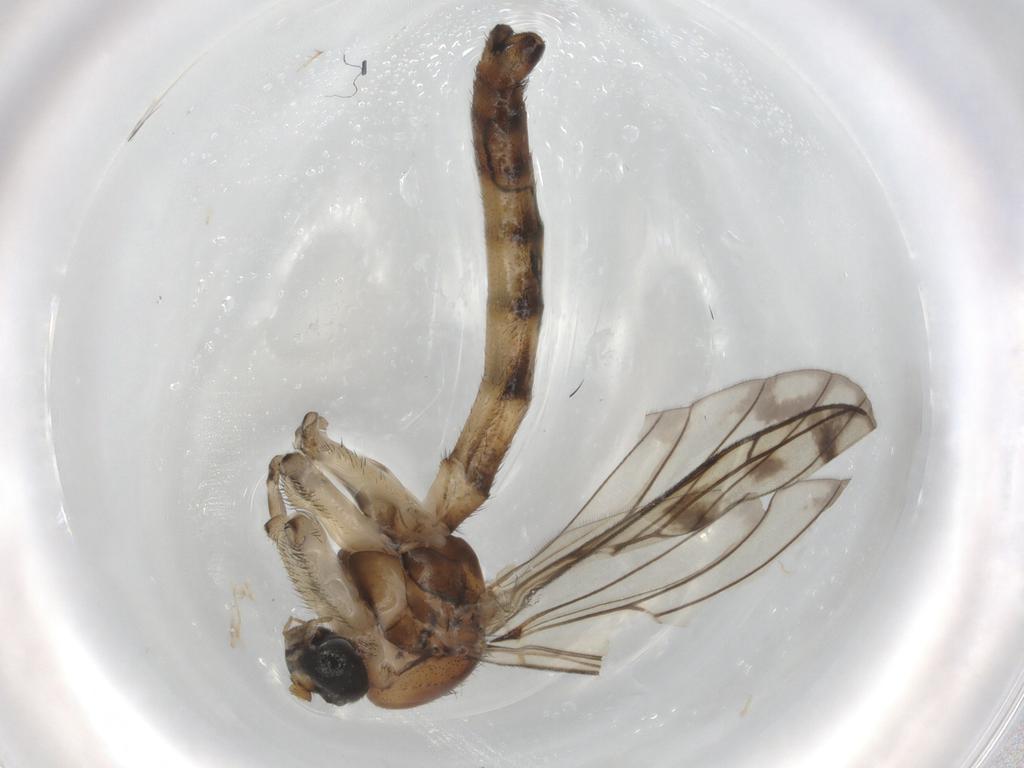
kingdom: Animalia
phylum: Arthropoda
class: Insecta
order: Diptera
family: Phoridae
